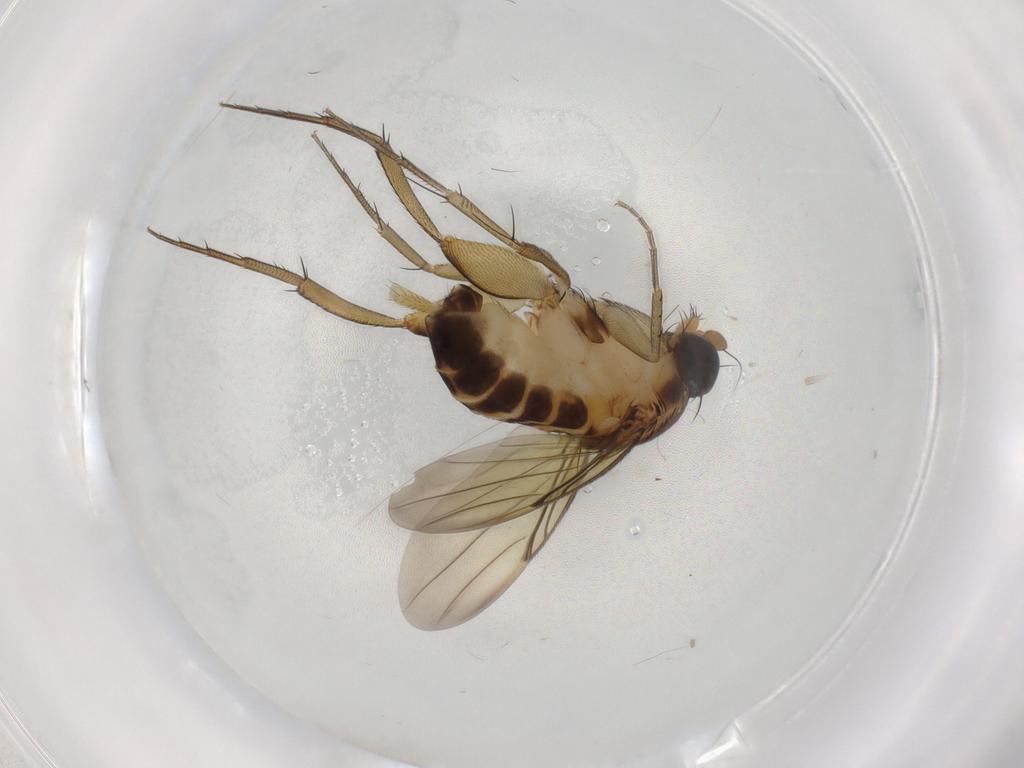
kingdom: Animalia
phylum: Arthropoda
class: Insecta
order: Diptera
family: Phoridae
